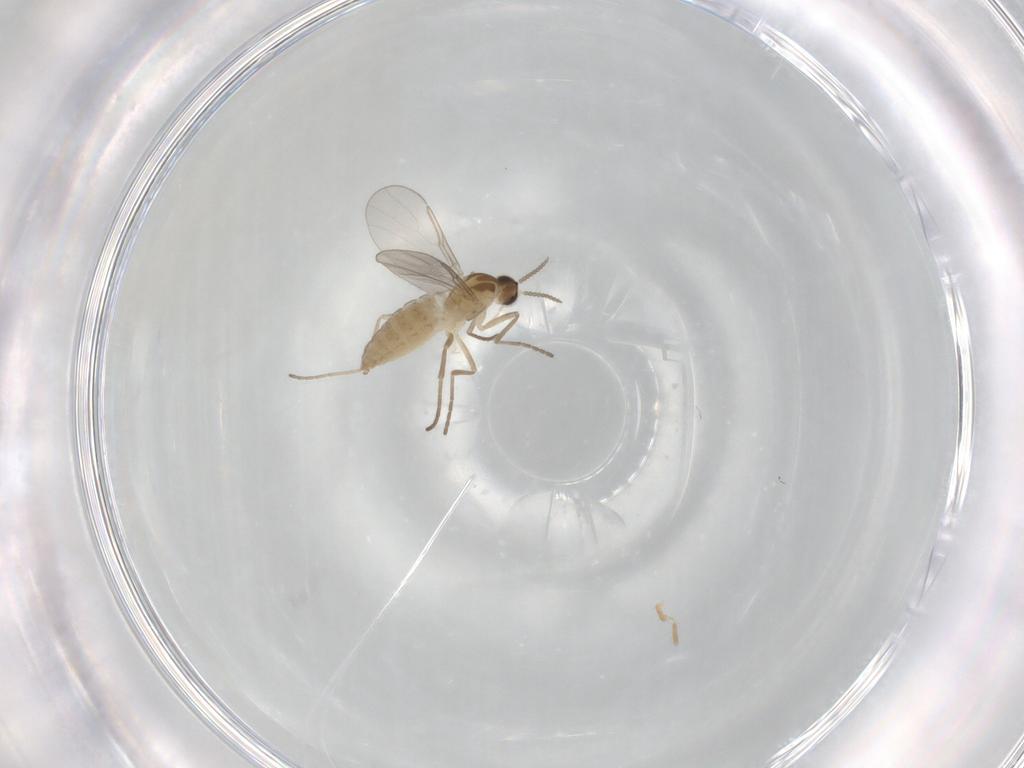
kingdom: Animalia
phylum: Arthropoda
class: Insecta
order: Diptera
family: Cecidomyiidae
